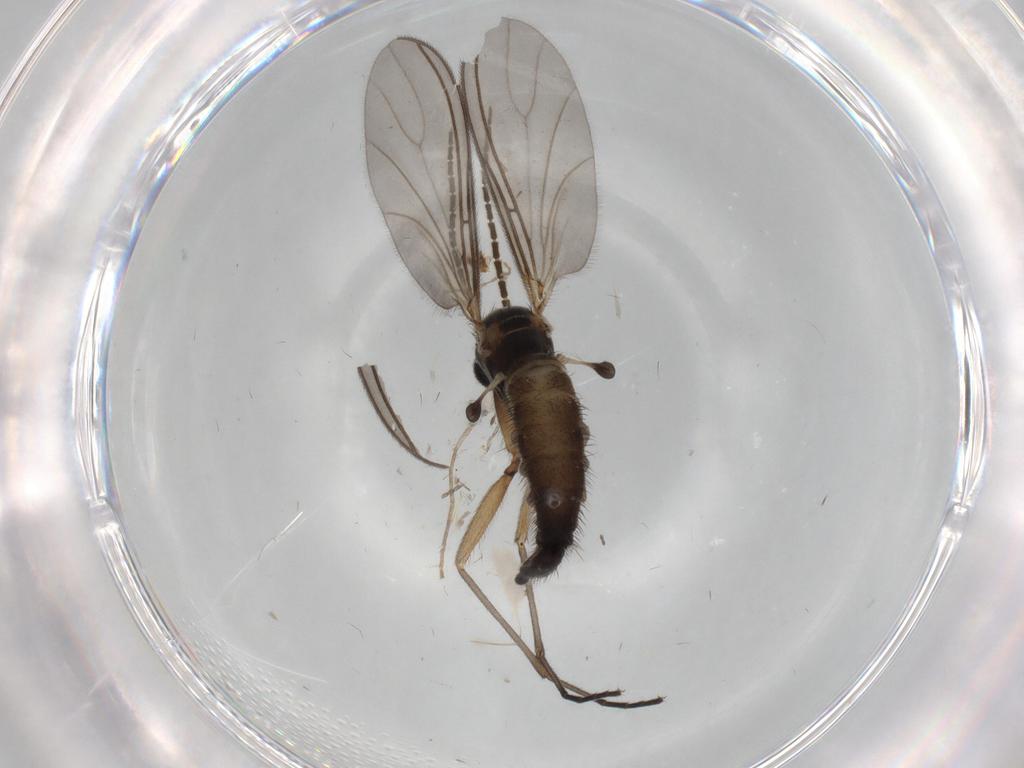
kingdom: Animalia
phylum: Arthropoda
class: Insecta
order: Diptera
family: Sciaridae
